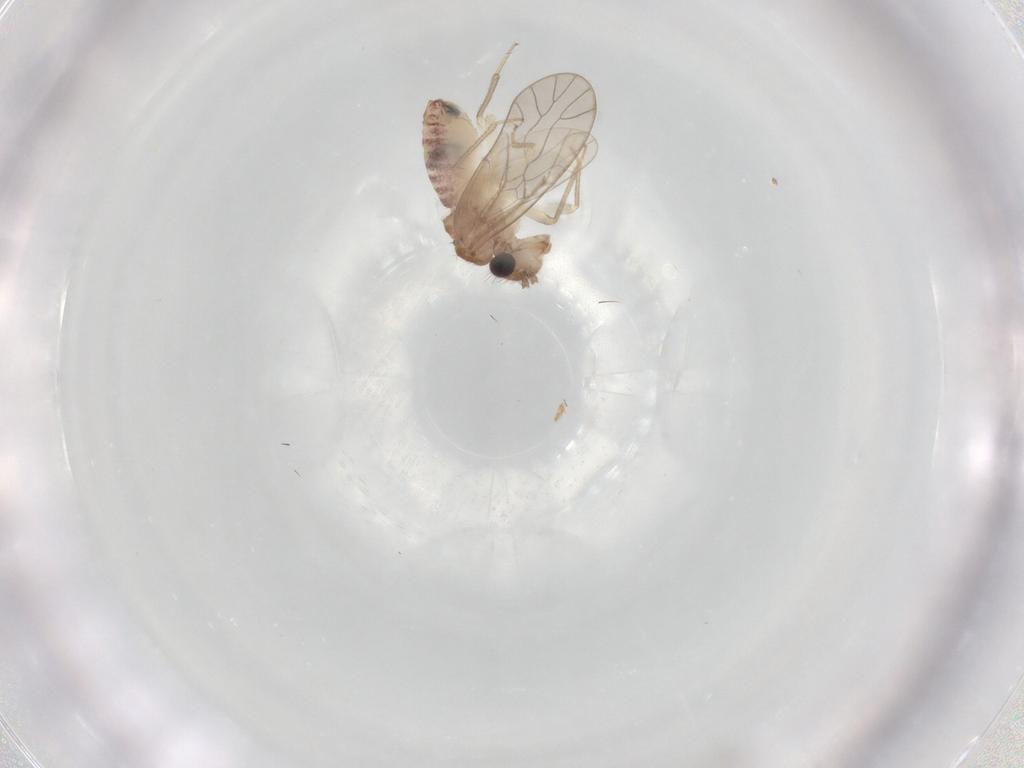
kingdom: Animalia
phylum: Arthropoda
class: Insecta
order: Psocodea
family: Caeciliusidae
